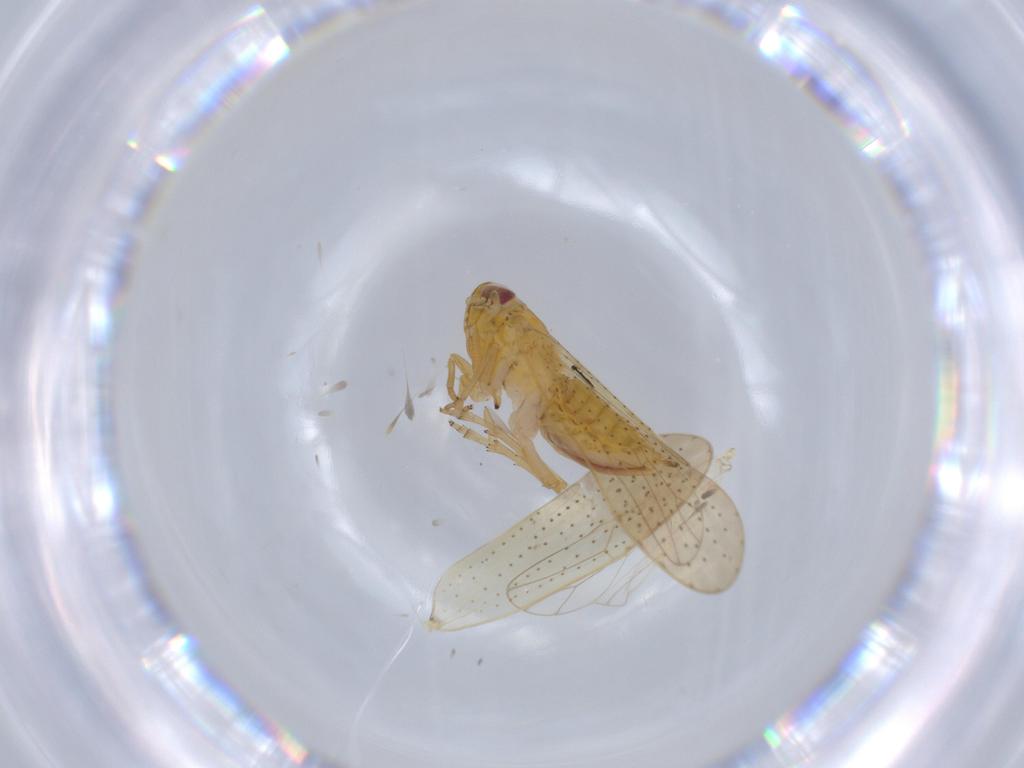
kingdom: Animalia
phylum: Arthropoda
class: Insecta
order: Hemiptera
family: Delphacidae
